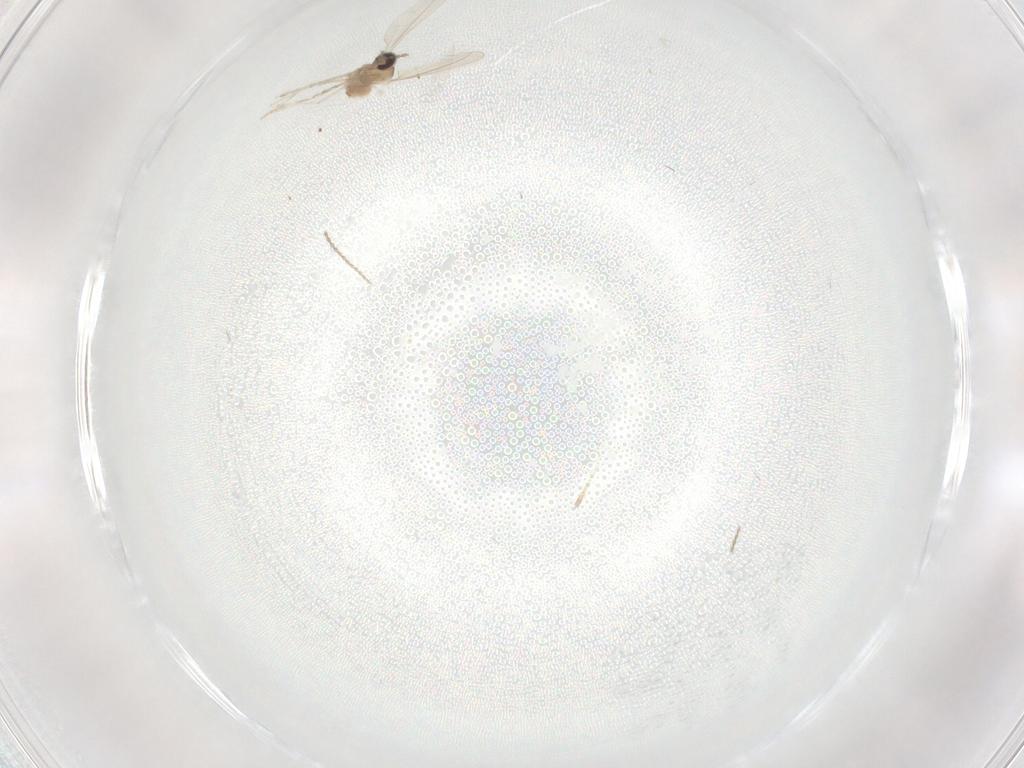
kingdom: Animalia
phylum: Arthropoda
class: Insecta
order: Diptera
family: Cecidomyiidae
